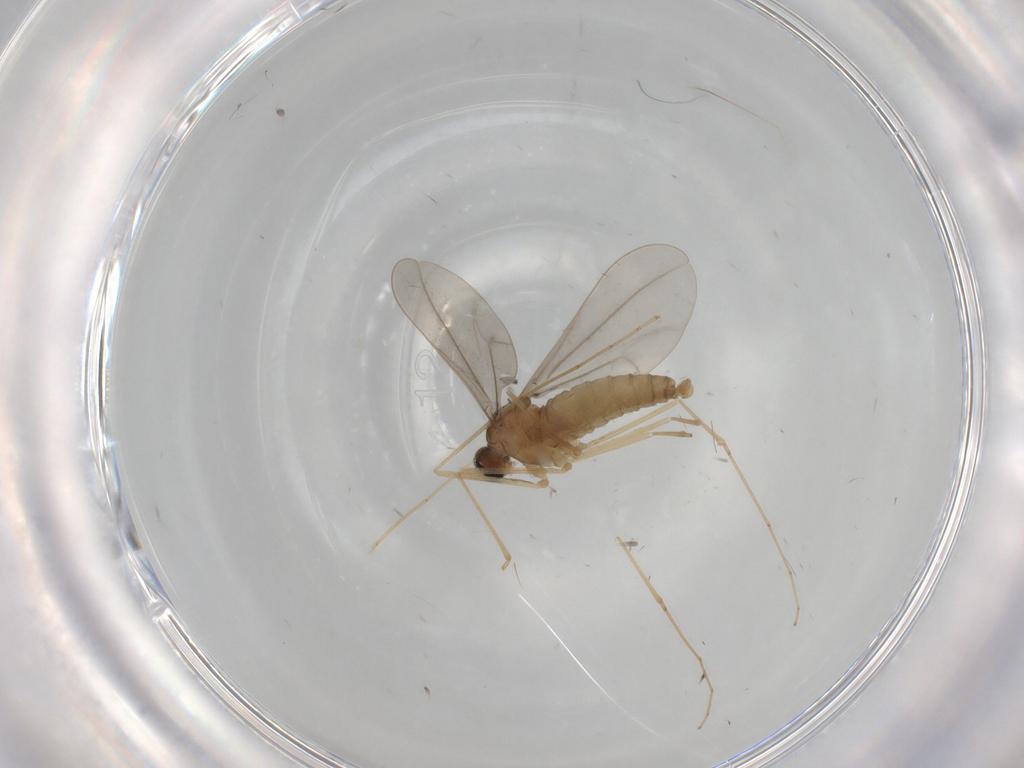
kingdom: Animalia
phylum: Arthropoda
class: Insecta
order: Diptera
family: Cecidomyiidae
